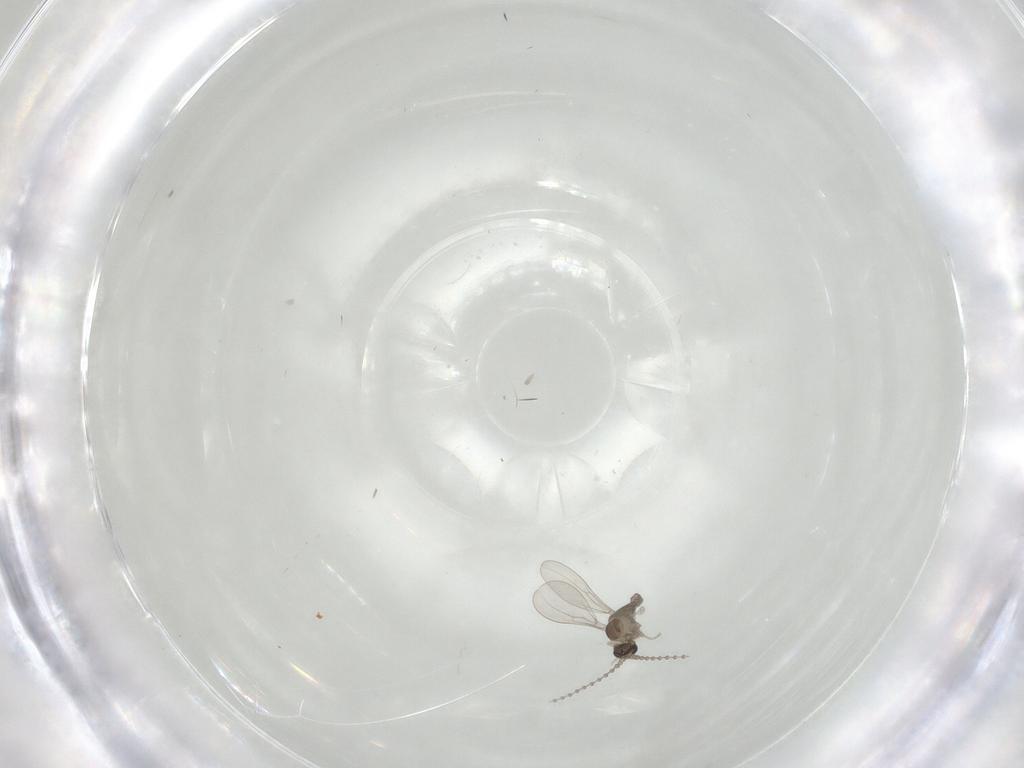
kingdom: Animalia
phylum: Arthropoda
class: Insecta
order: Diptera
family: Cecidomyiidae
